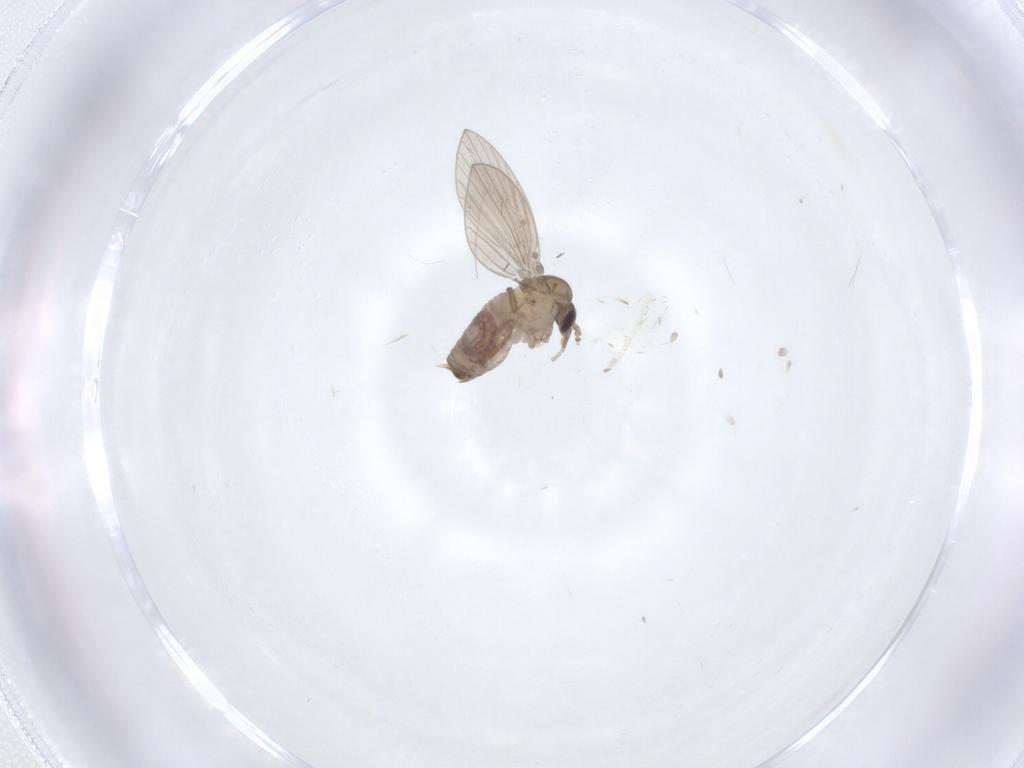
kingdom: Animalia
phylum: Arthropoda
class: Insecta
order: Diptera
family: Psychodidae
